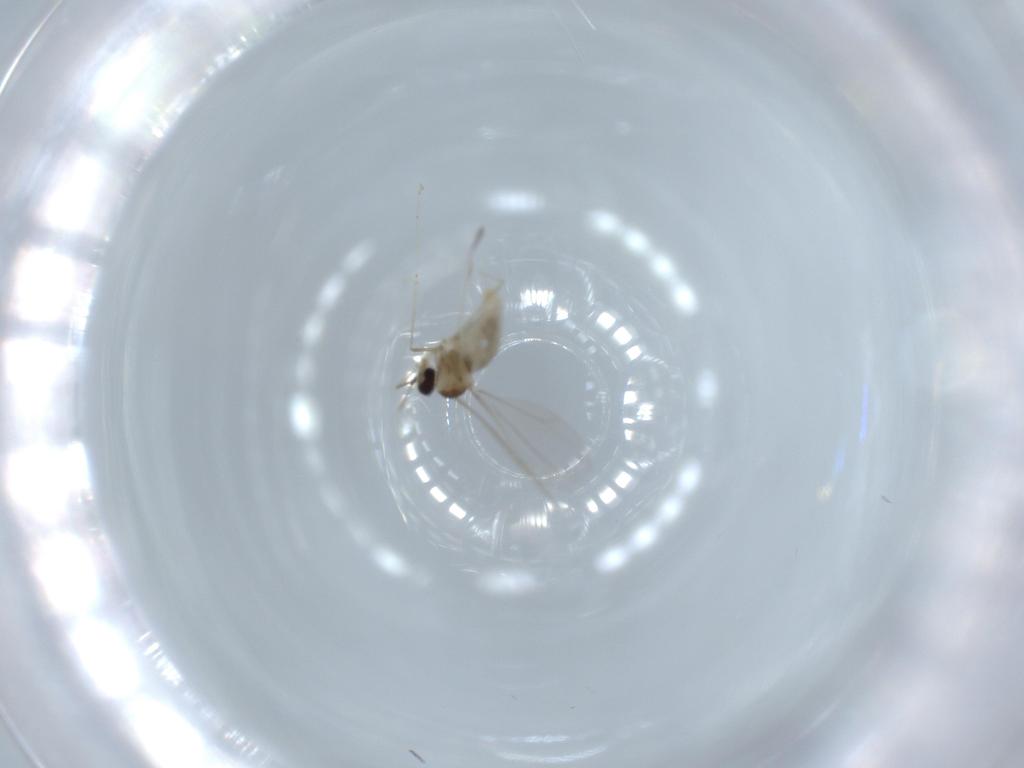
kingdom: Animalia
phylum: Arthropoda
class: Insecta
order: Diptera
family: Cecidomyiidae
